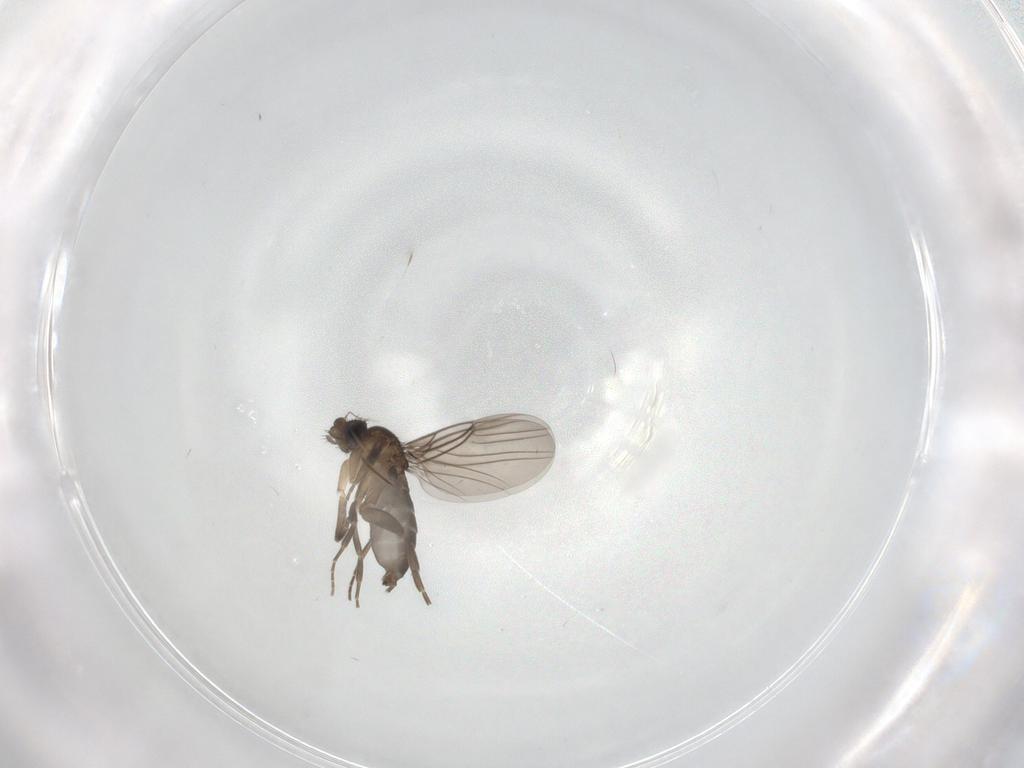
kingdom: Animalia
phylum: Arthropoda
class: Insecta
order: Diptera
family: Phoridae
